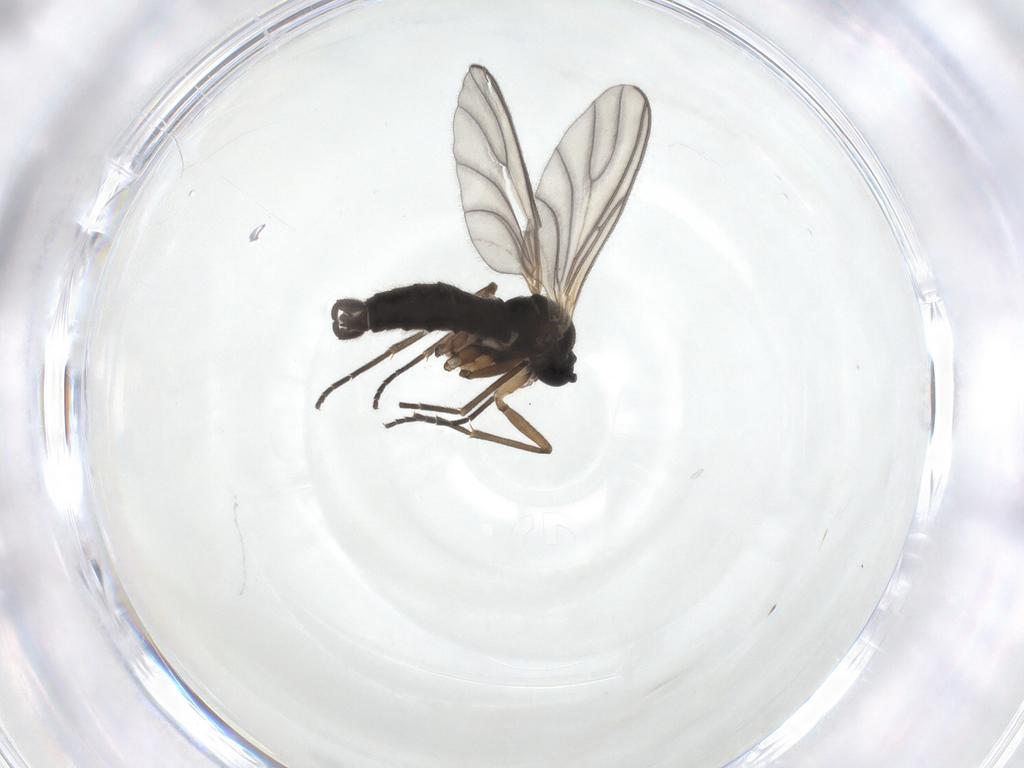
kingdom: Animalia
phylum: Arthropoda
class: Insecta
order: Diptera
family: Sciaridae
